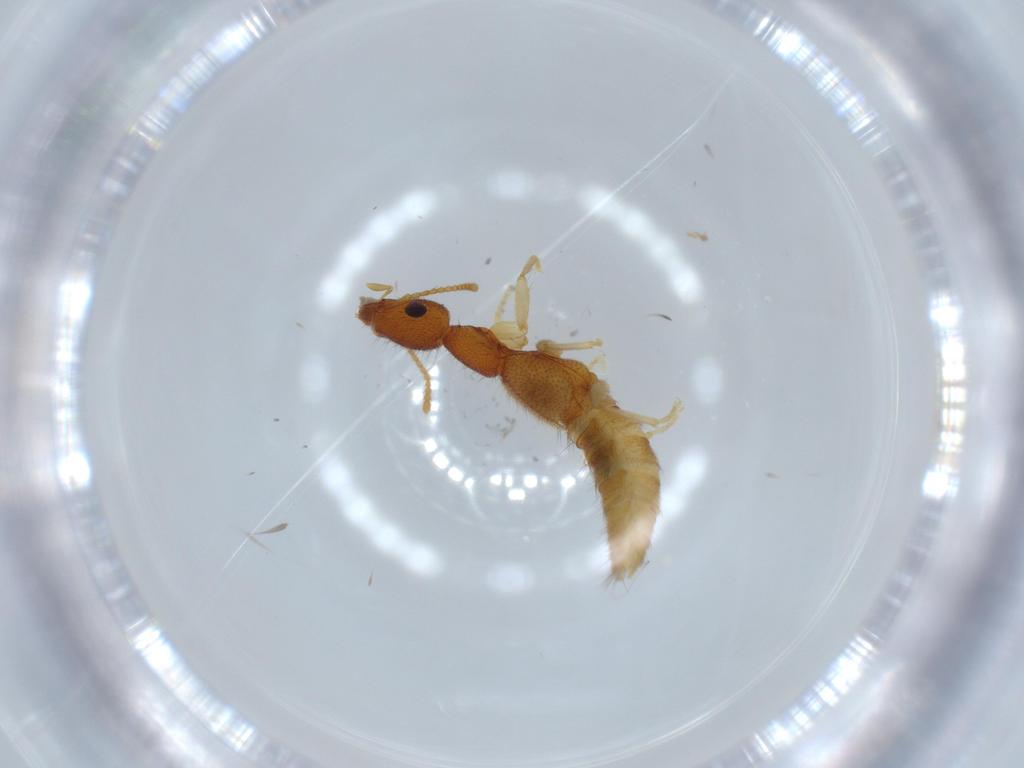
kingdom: Animalia
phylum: Arthropoda
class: Insecta
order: Coleoptera
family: Staphylinidae
